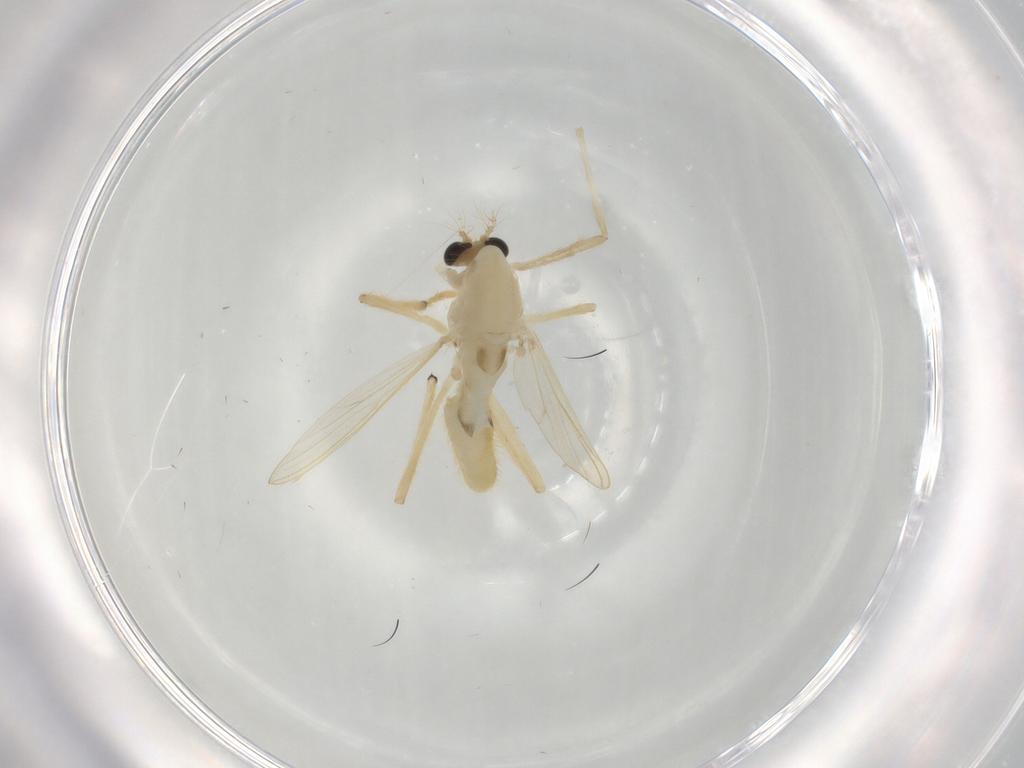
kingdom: Animalia
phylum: Arthropoda
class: Insecta
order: Diptera
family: Chironomidae
